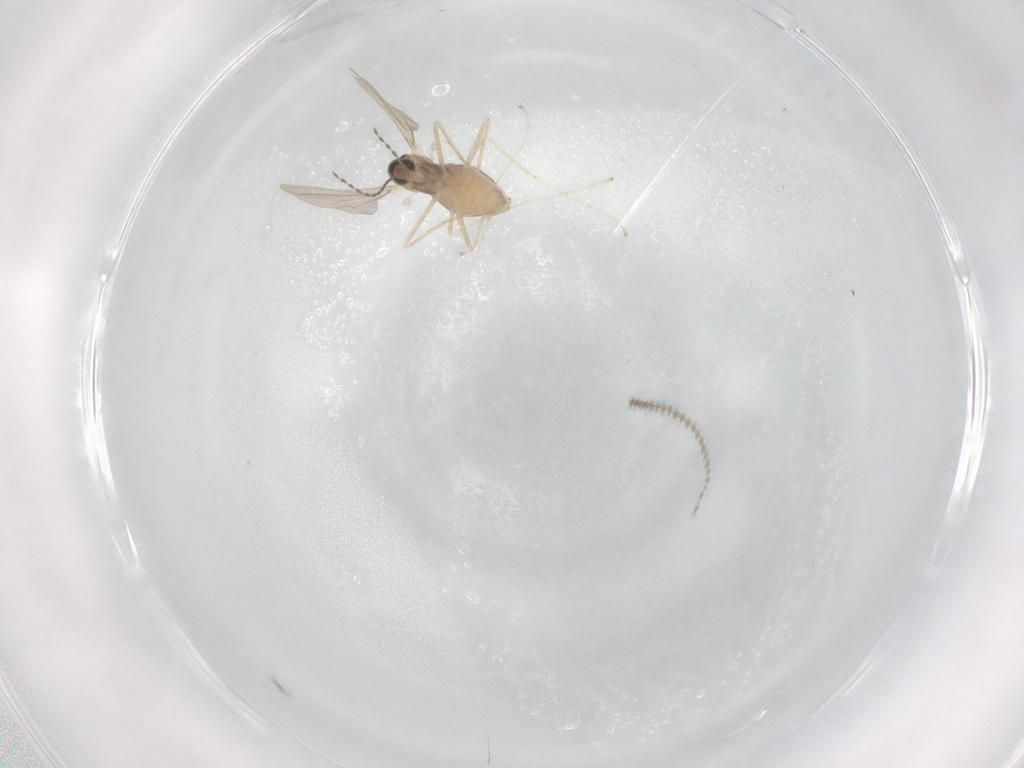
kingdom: Animalia
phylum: Arthropoda
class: Insecta
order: Diptera
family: Cecidomyiidae
